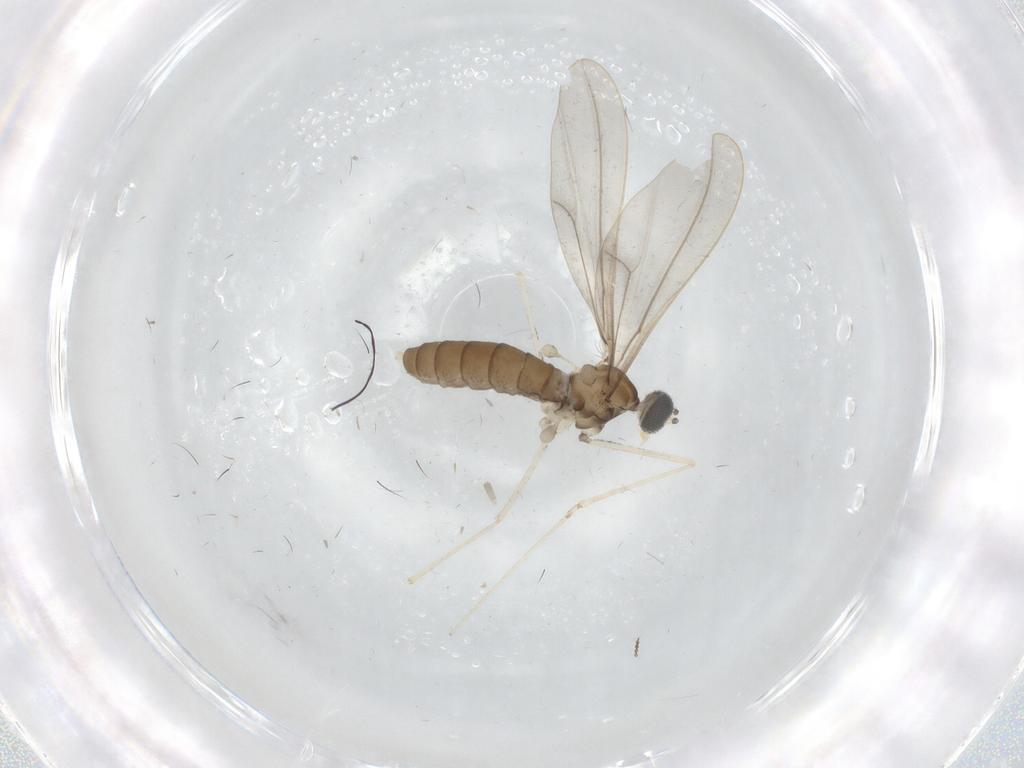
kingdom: Animalia
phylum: Arthropoda
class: Insecta
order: Diptera
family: Cecidomyiidae
